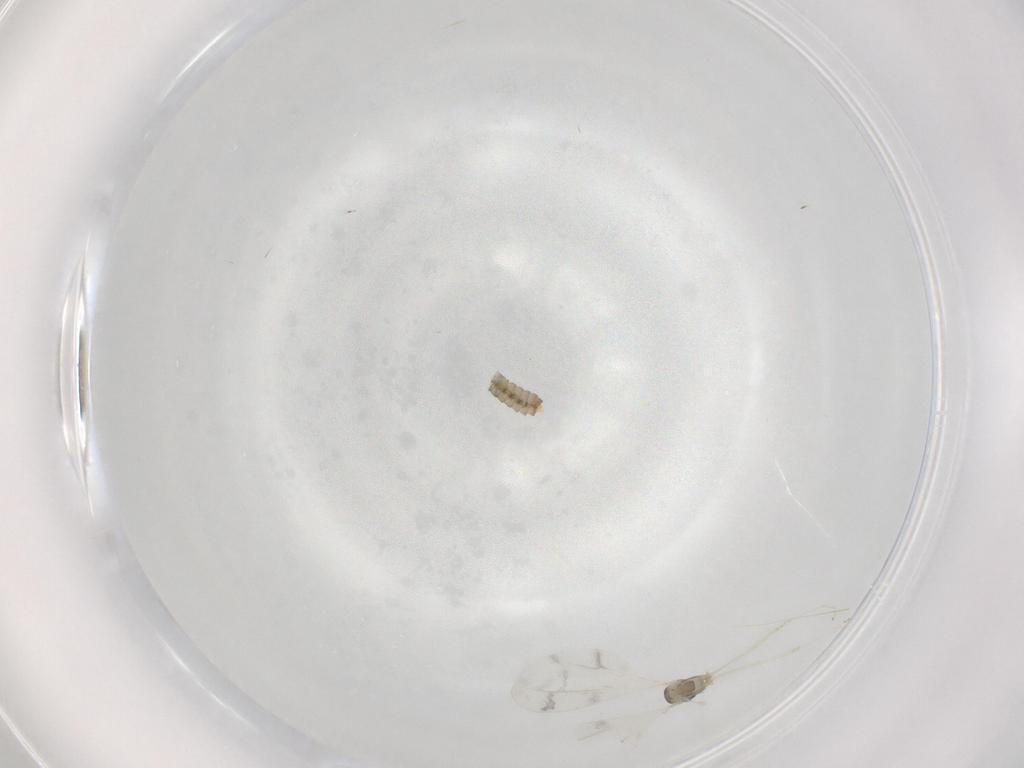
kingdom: Animalia
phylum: Arthropoda
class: Insecta
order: Diptera
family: Cecidomyiidae
